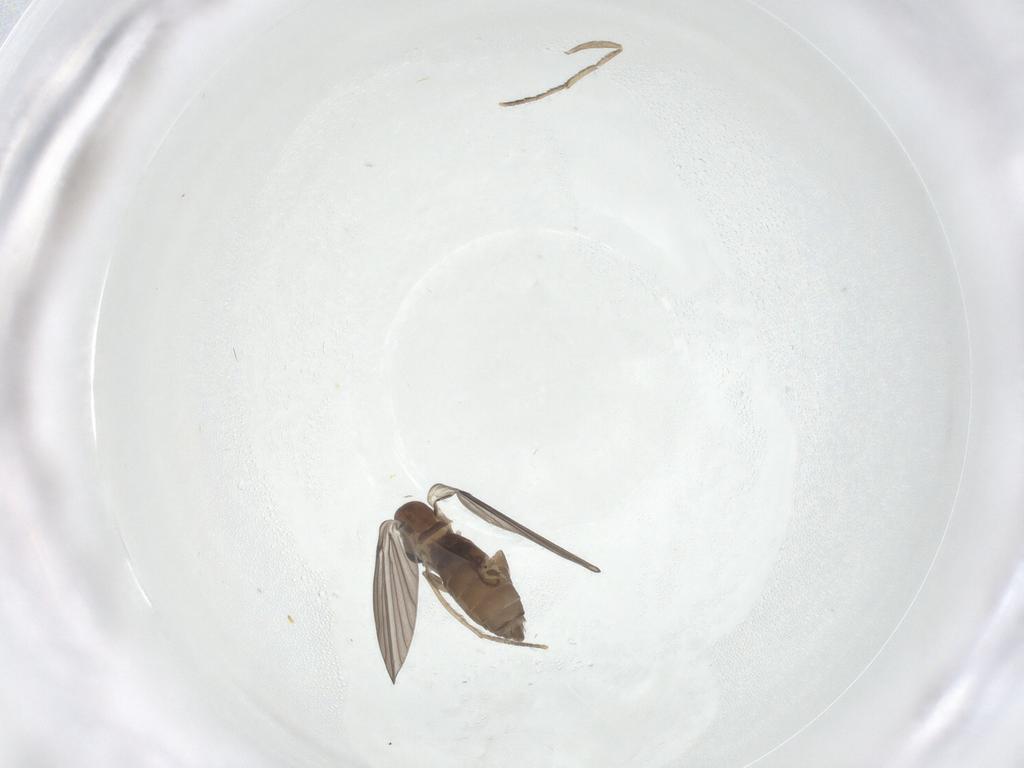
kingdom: Animalia
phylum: Arthropoda
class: Insecta
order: Diptera
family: Psychodidae
